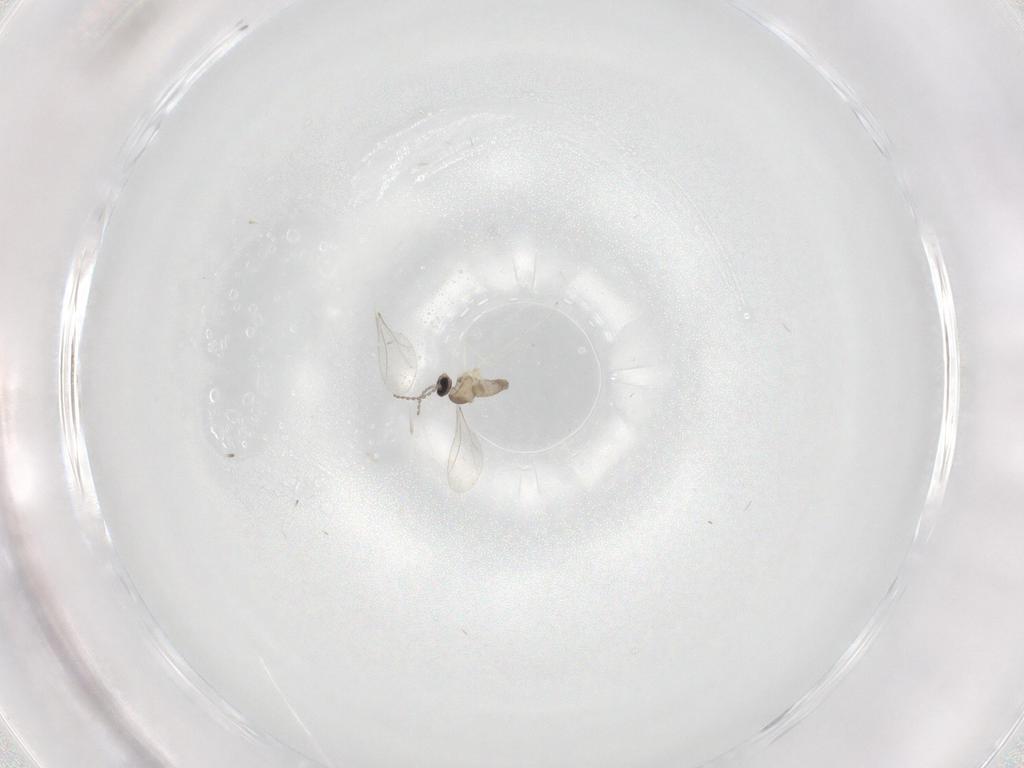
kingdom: Animalia
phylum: Arthropoda
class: Insecta
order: Diptera
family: Cecidomyiidae
